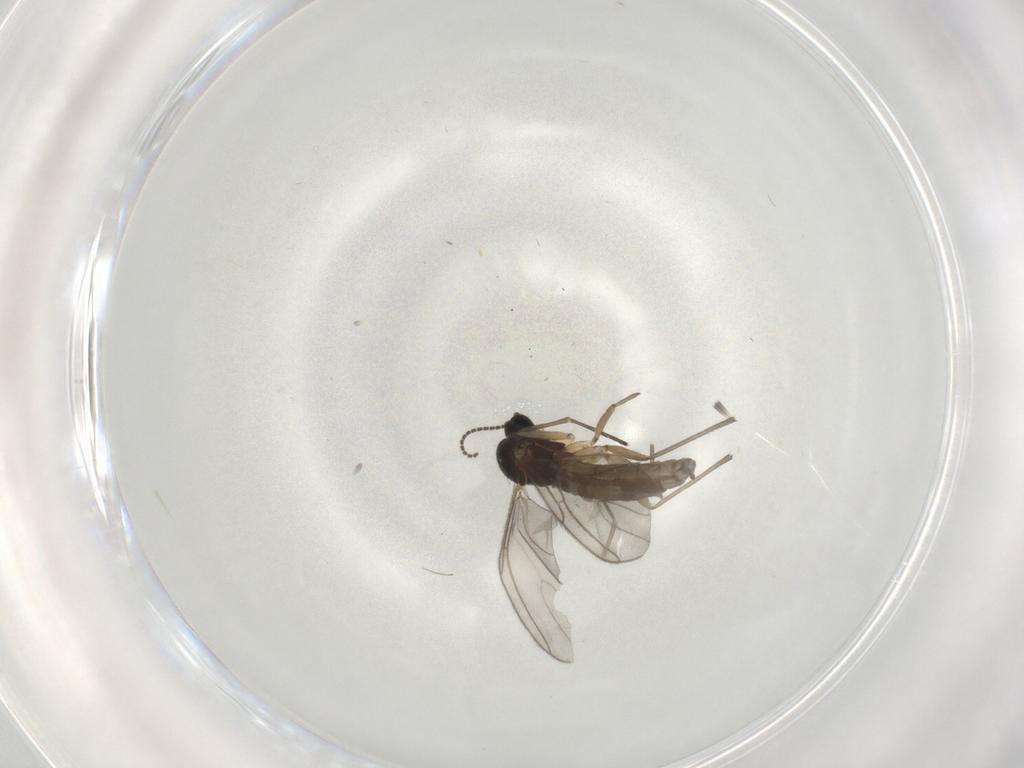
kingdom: Animalia
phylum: Arthropoda
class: Insecta
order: Diptera
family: Sciaridae
